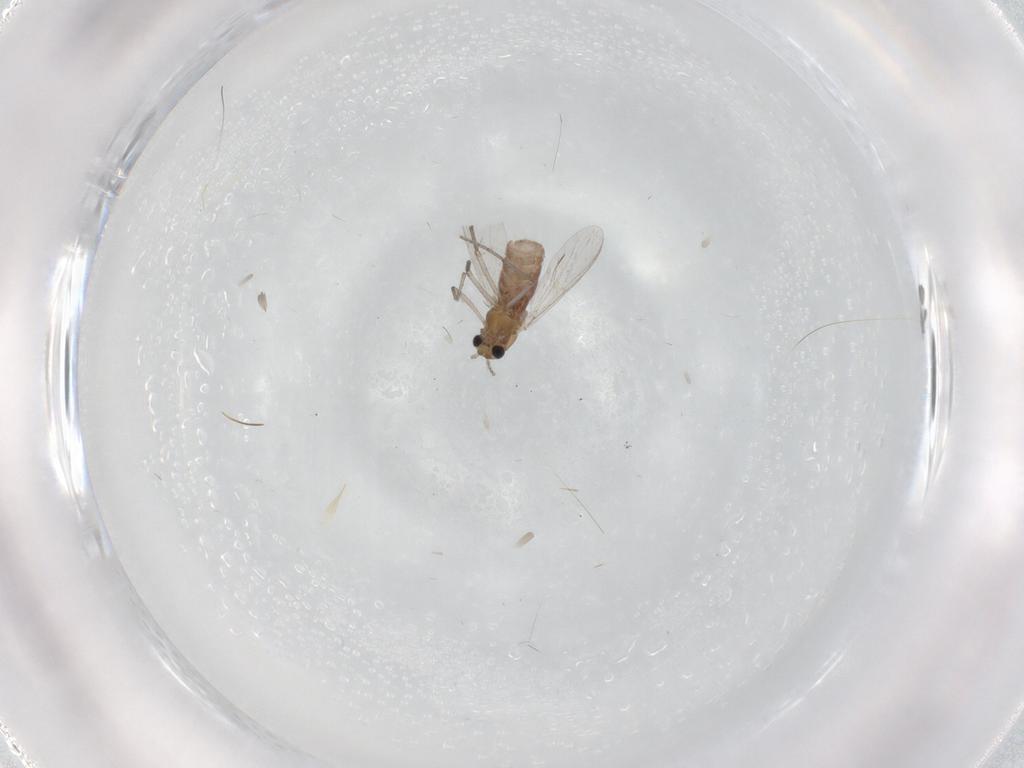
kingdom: Animalia
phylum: Arthropoda
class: Insecta
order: Diptera
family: Chironomidae
